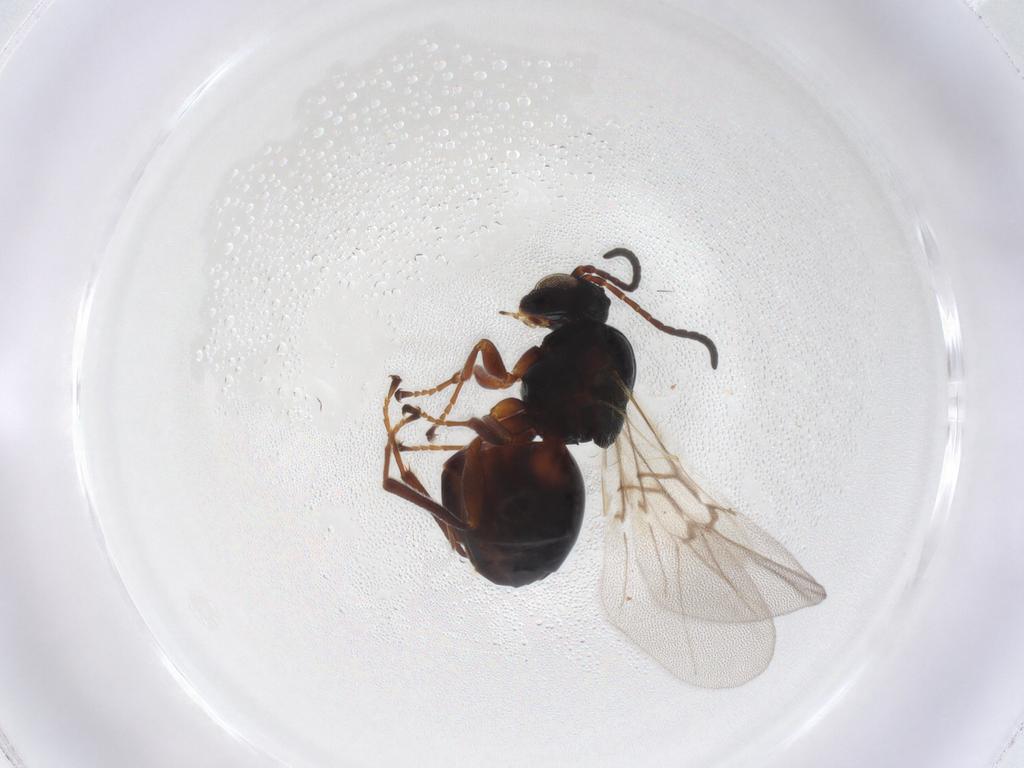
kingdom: Animalia
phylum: Arthropoda
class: Insecta
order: Hymenoptera
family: Cynipidae
